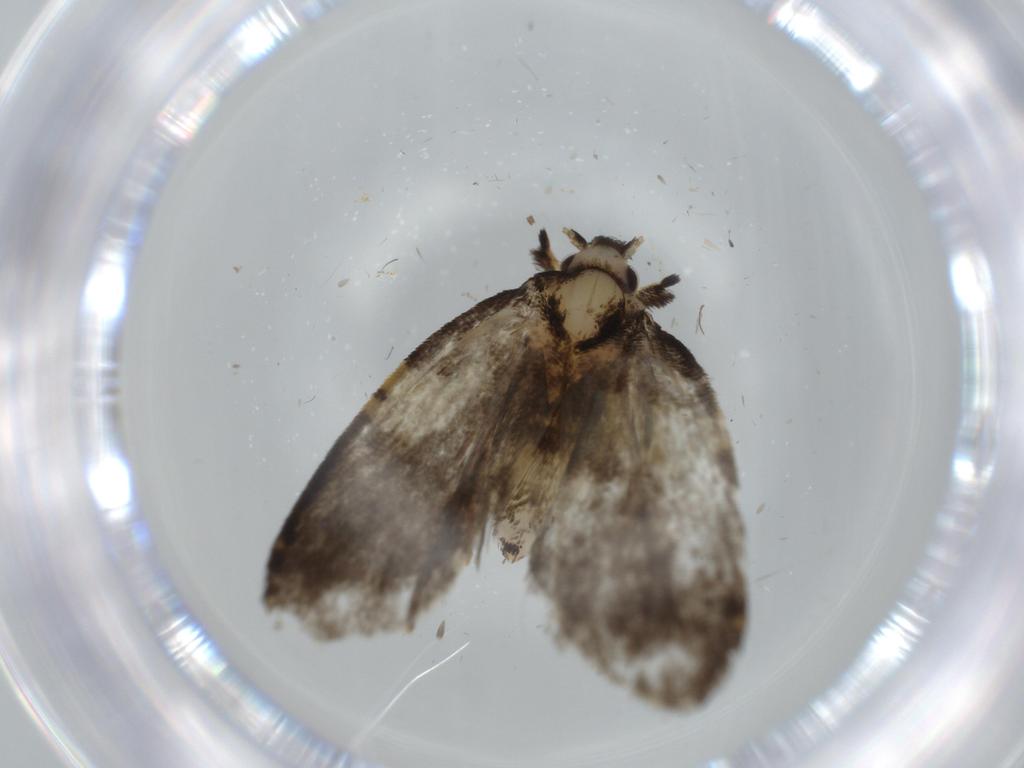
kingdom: Animalia
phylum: Arthropoda
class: Insecta
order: Lepidoptera
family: Psychidae
